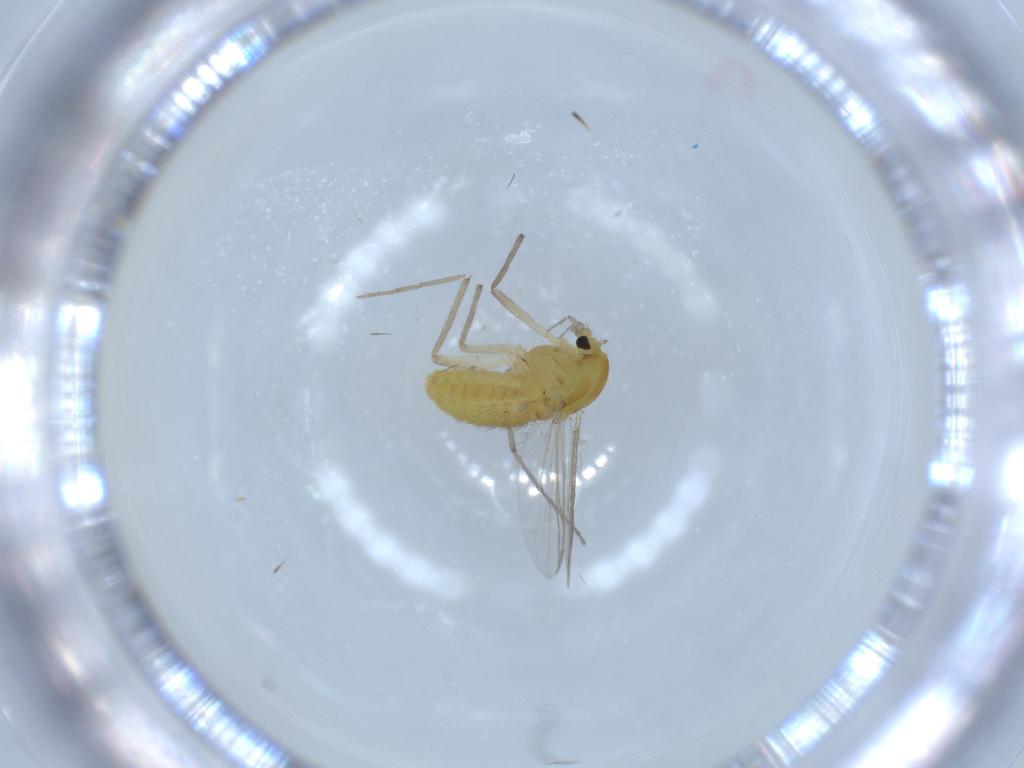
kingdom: Animalia
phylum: Arthropoda
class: Insecta
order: Diptera
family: Chironomidae
